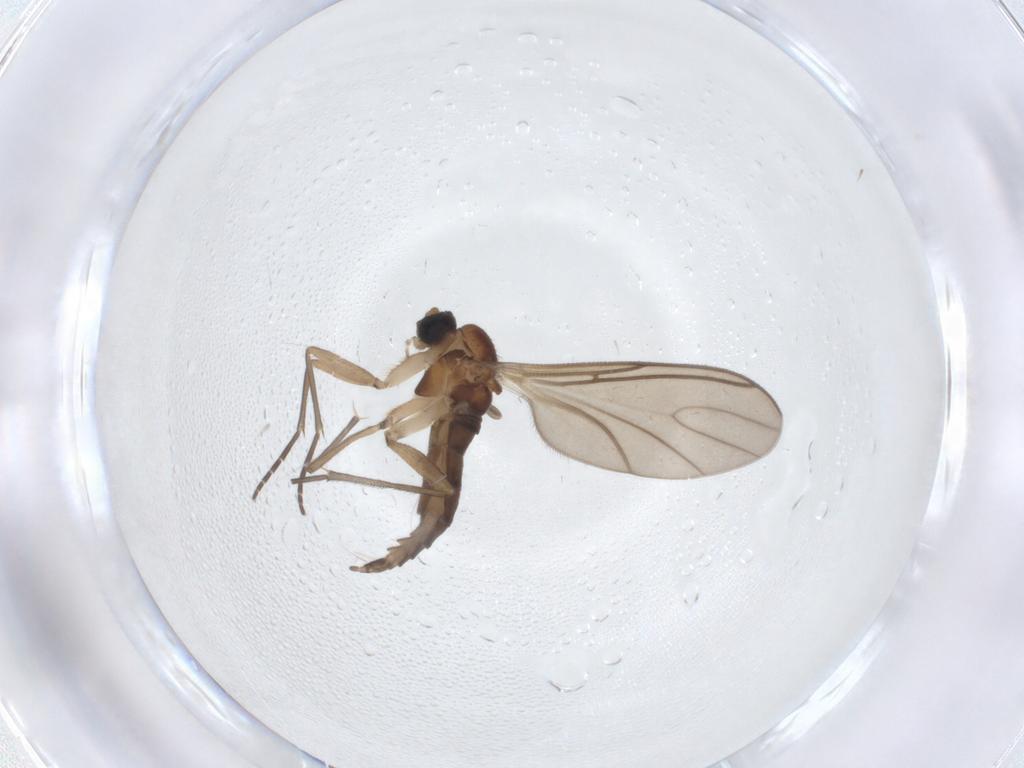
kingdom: Animalia
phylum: Arthropoda
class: Insecta
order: Diptera
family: Sciaridae
